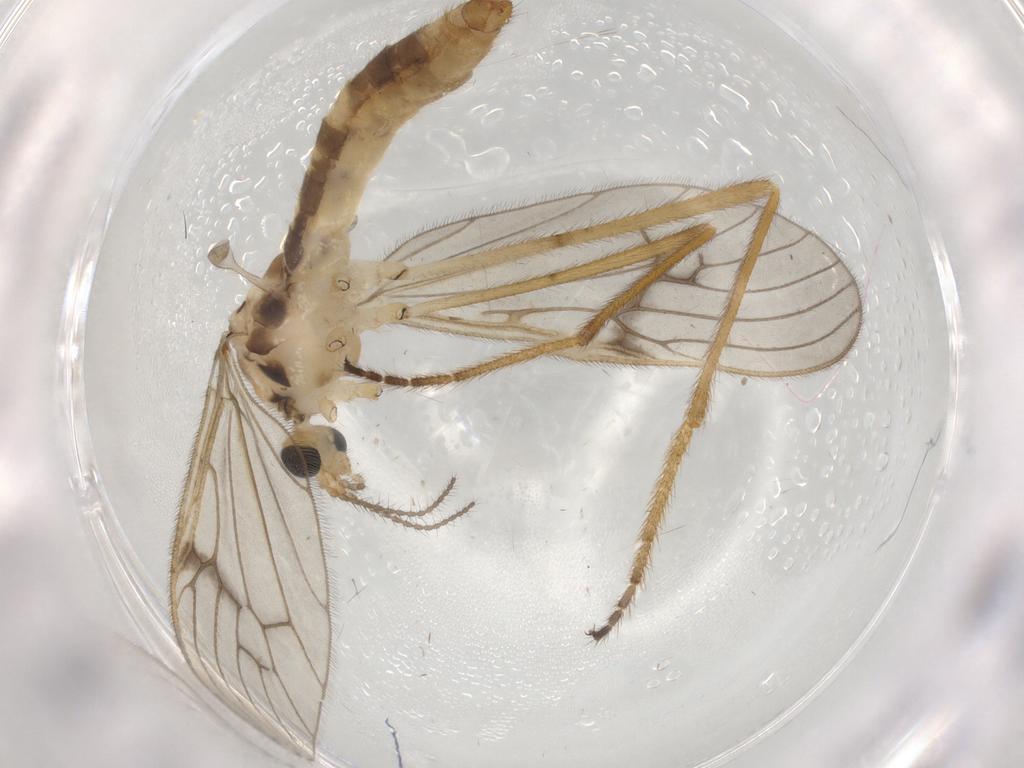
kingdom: Animalia
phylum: Arthropoda
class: Insecta
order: Diptera
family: Limoniidae
